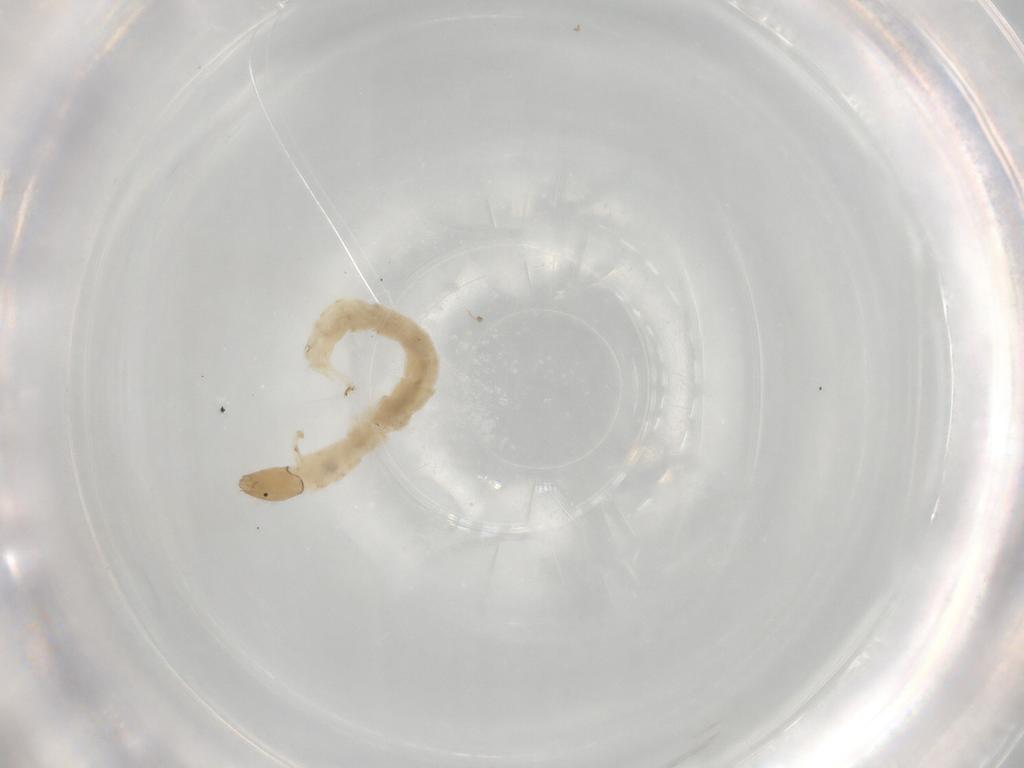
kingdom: Animalia
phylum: Arthropoda
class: Insecta
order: Diptera
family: Chironomidae
